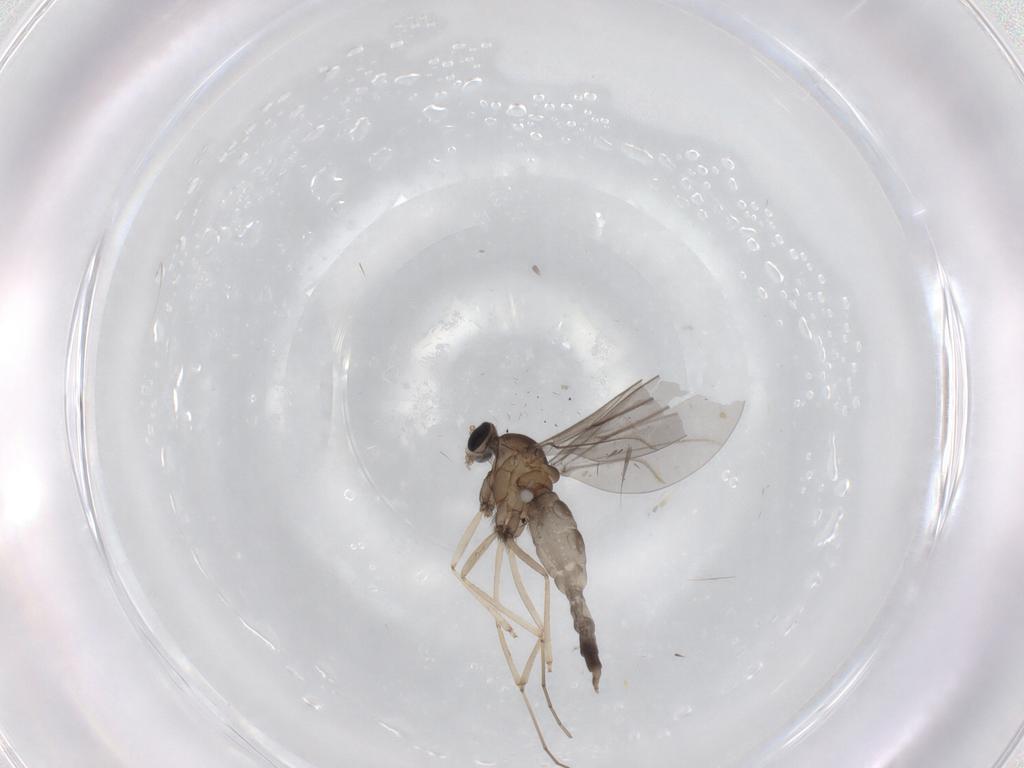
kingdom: Animalia
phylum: Arthropoda
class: Insecta
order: Diptera
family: Cecidomyiidae
